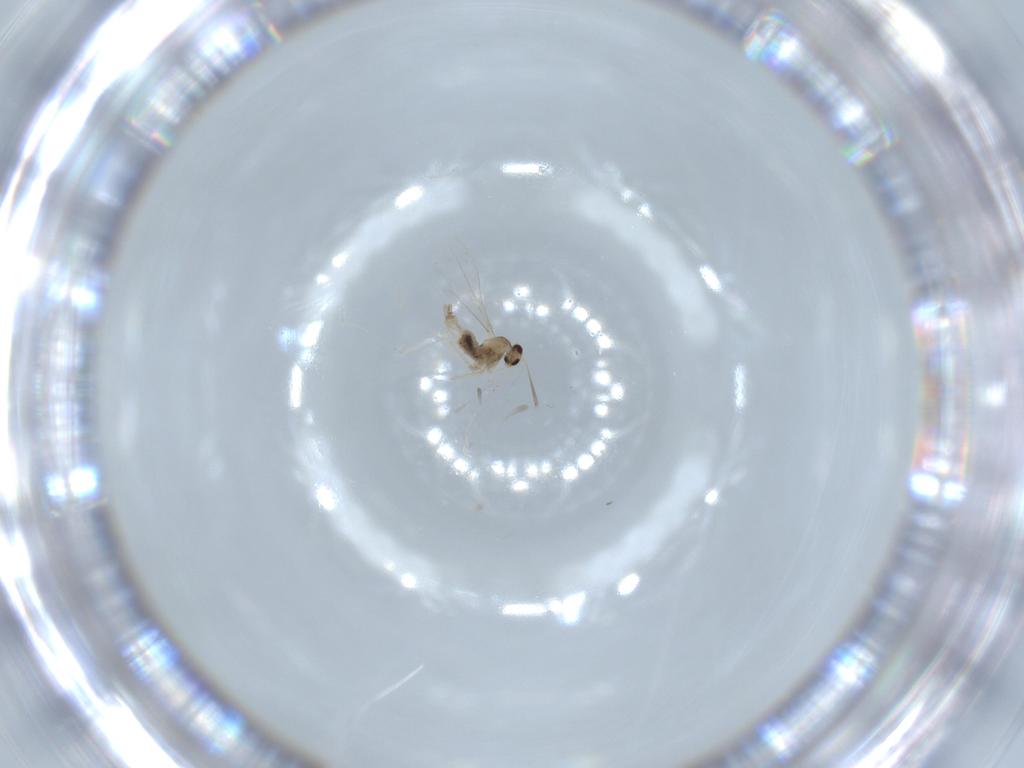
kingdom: Animalia
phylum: Arthropoda
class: Insecta
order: Diptera
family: Cecidomyiidae
